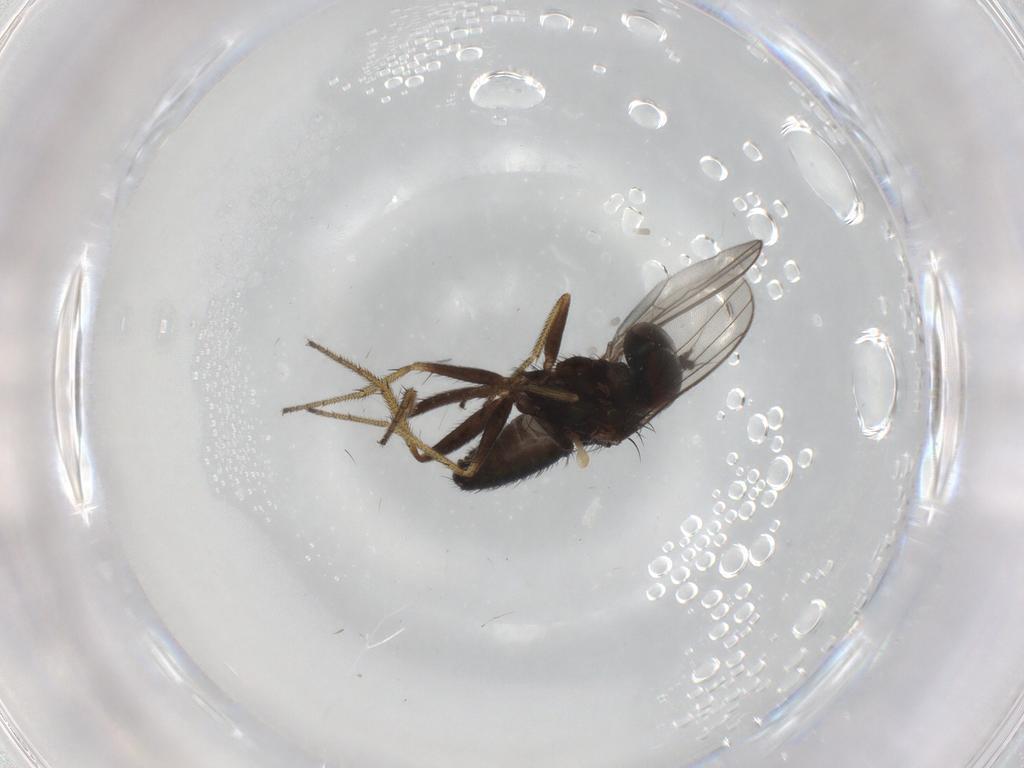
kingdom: Animalia
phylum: Arthropoda
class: Insecta
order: Diptera
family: Dolichopodidae
